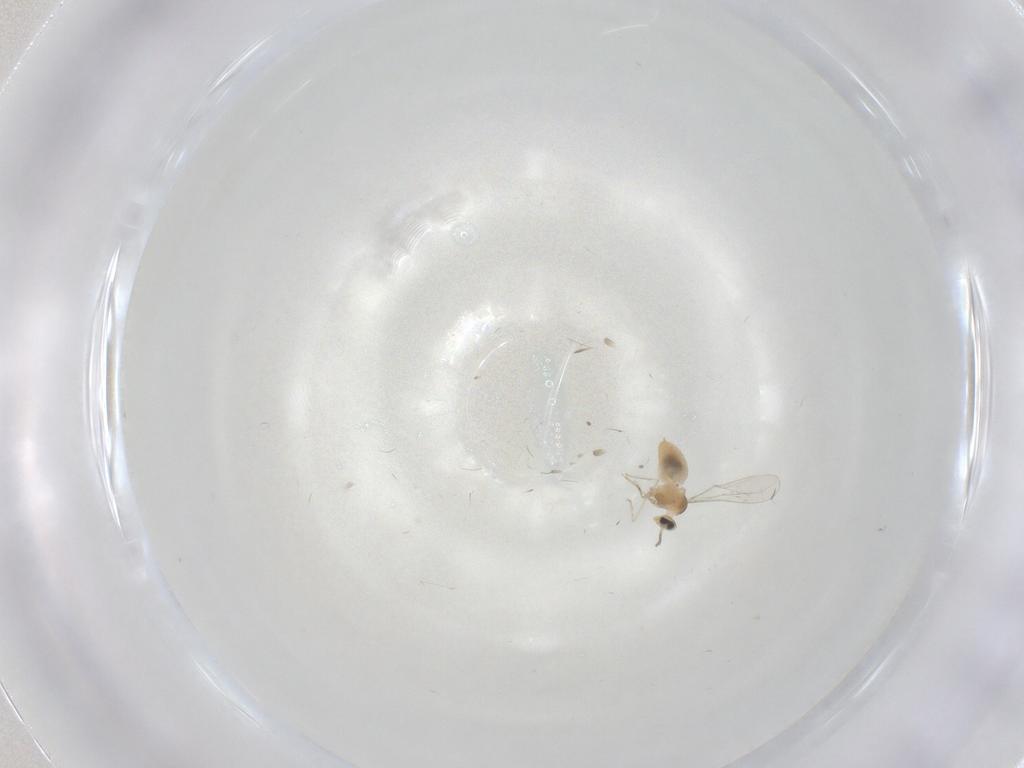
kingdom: Animalia
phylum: Arthropoda
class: Insecta
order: Diptera
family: Cecidomyiidae
